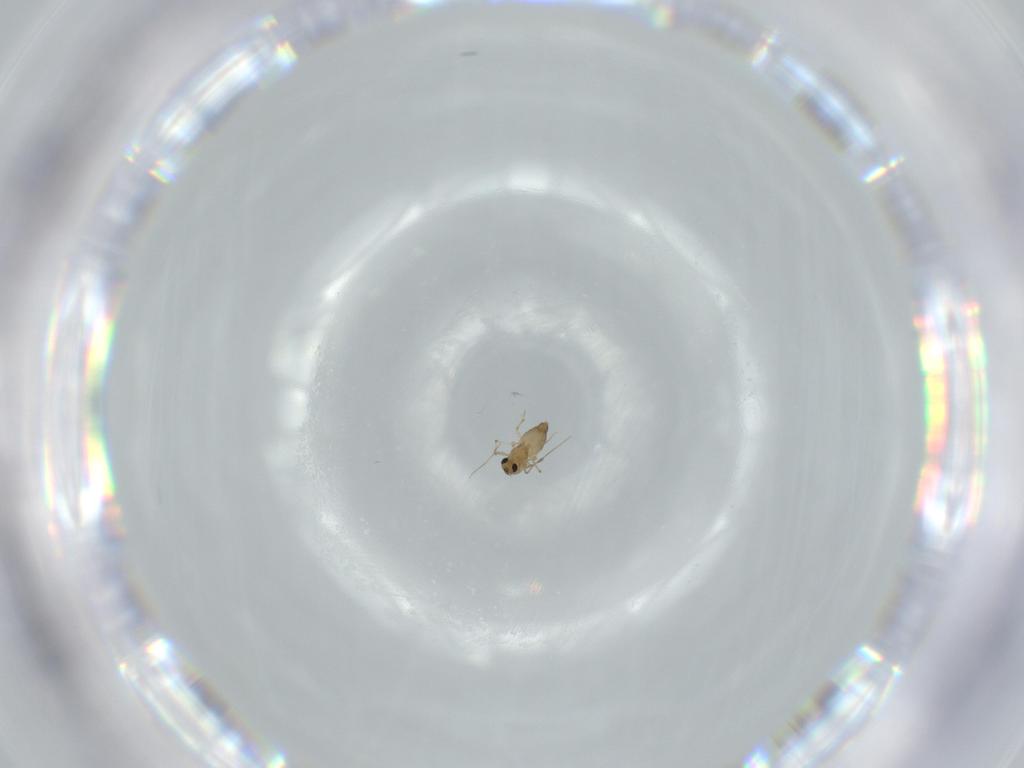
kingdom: Animalia
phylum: Arthropoda
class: Insecta
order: Diptera
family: Chironomidae
